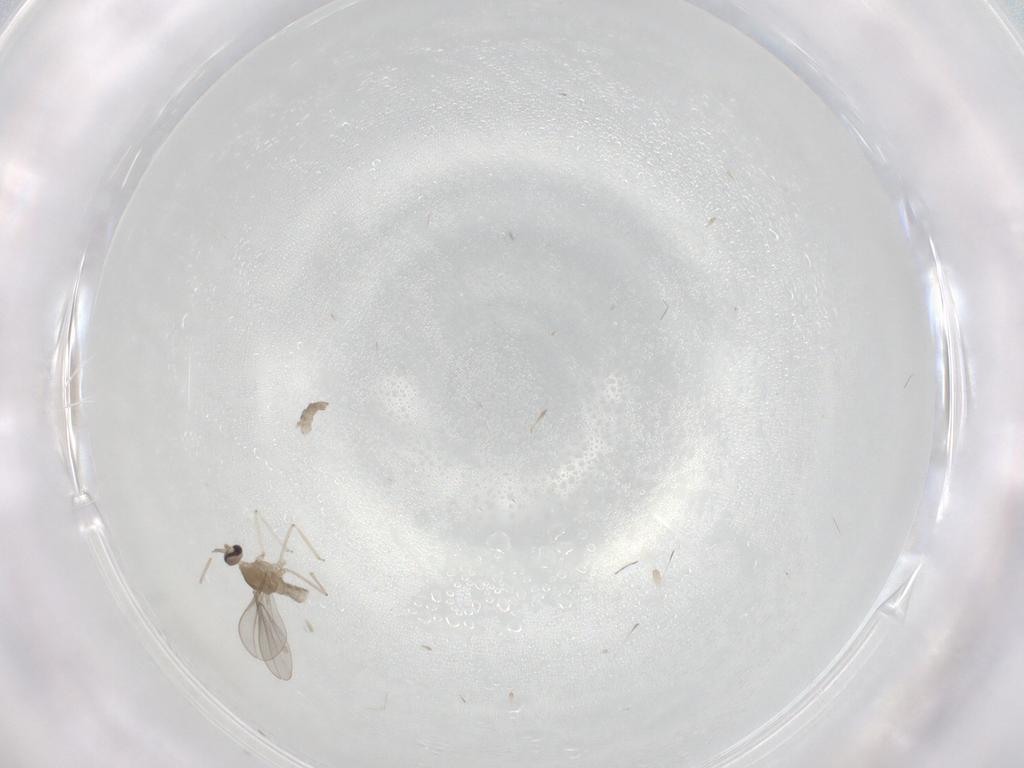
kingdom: Animalia
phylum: Arthropoda
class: Insecta
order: Diptera
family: Cecidomyiidae
